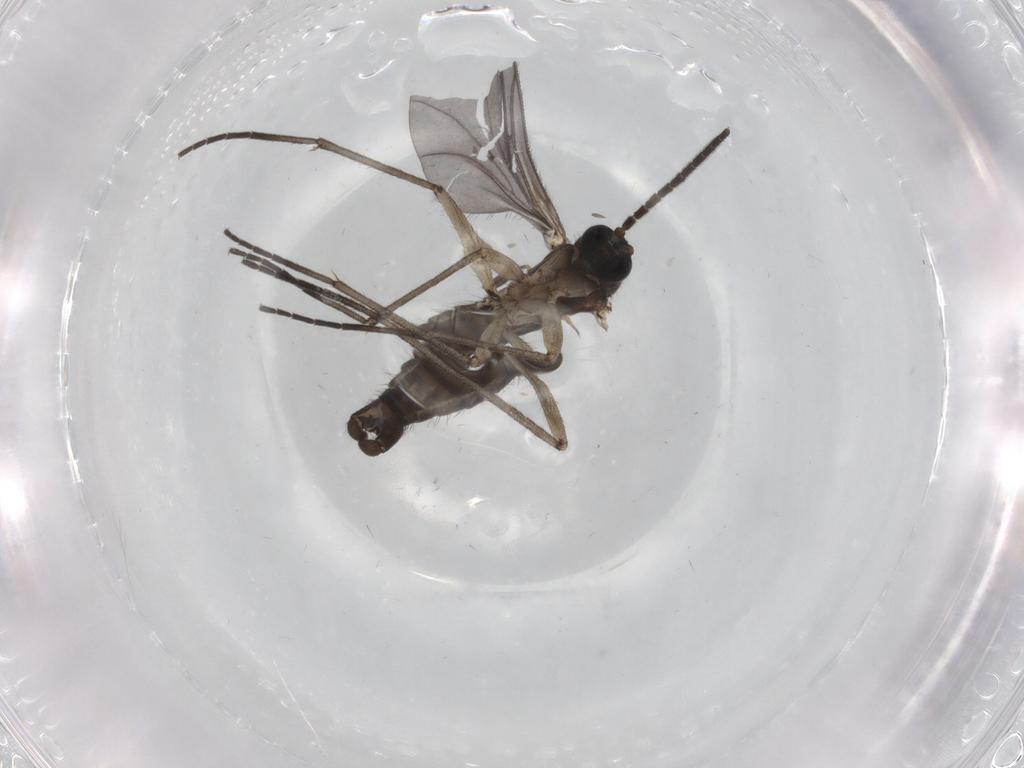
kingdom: Animalia
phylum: Arthropoda
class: Insecta
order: Diptera
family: Sciaridae
